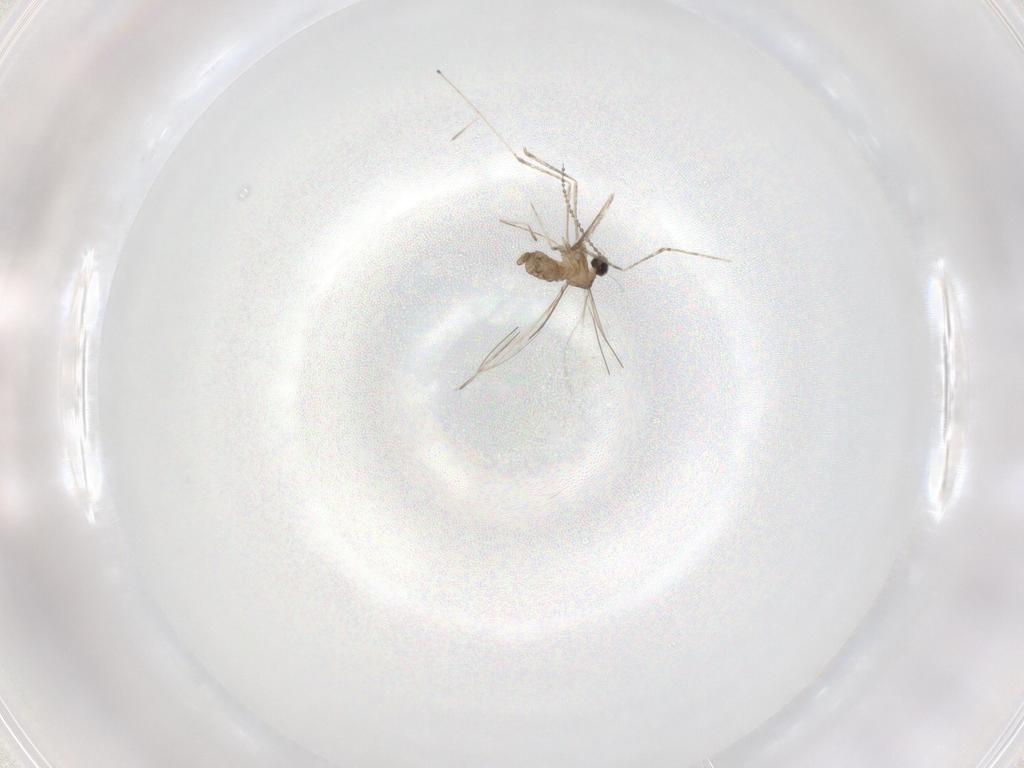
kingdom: Animalia
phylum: Arthropoda
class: Insecta
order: Diptera
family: Cecidomyiidae
